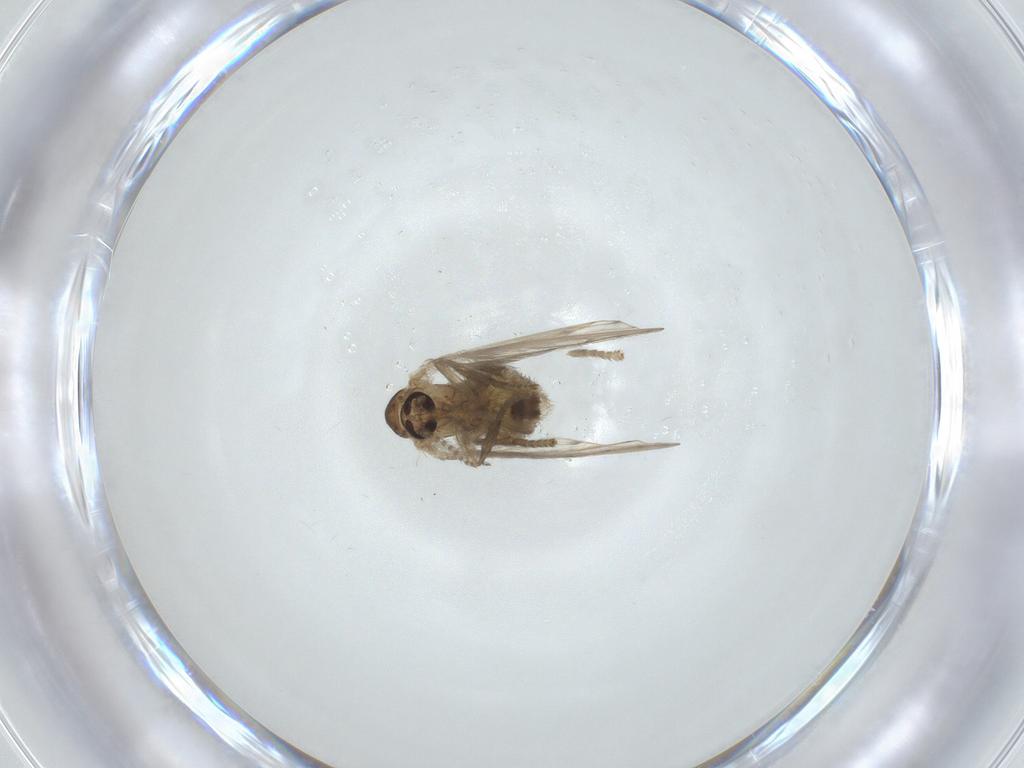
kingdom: Animalia
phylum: Arthropoda
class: Insecta
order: Diptera
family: Psychodidae
